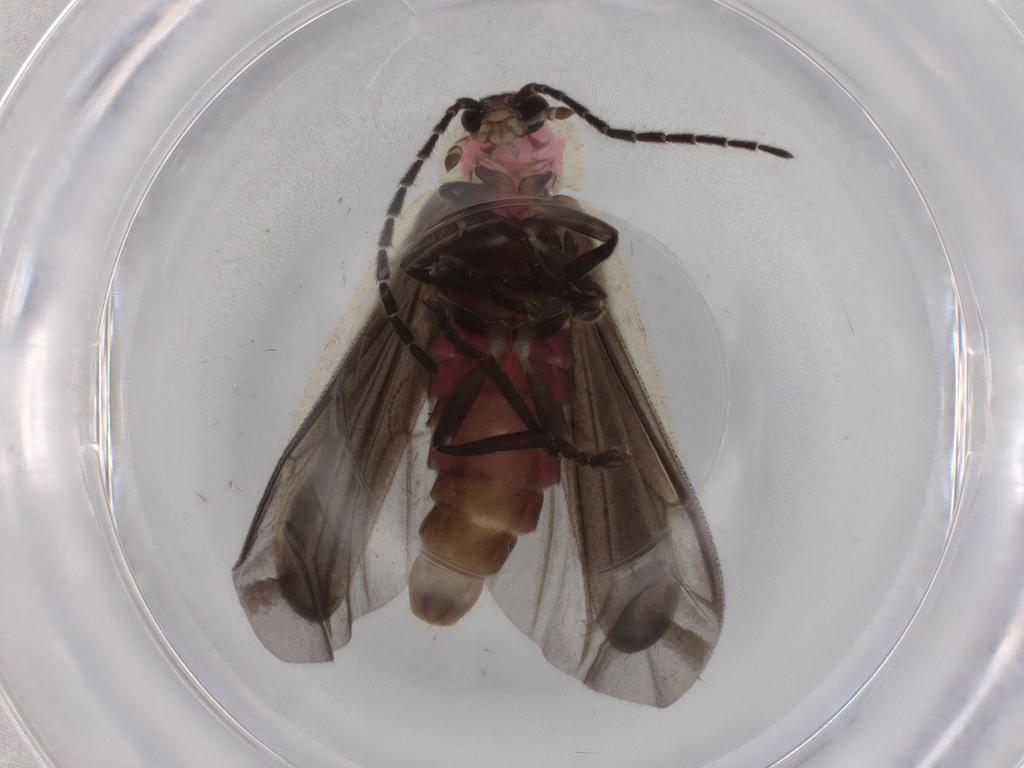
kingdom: Animalia
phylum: Arthropoda
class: Insecta
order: Coleoptera
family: Lampyridae
